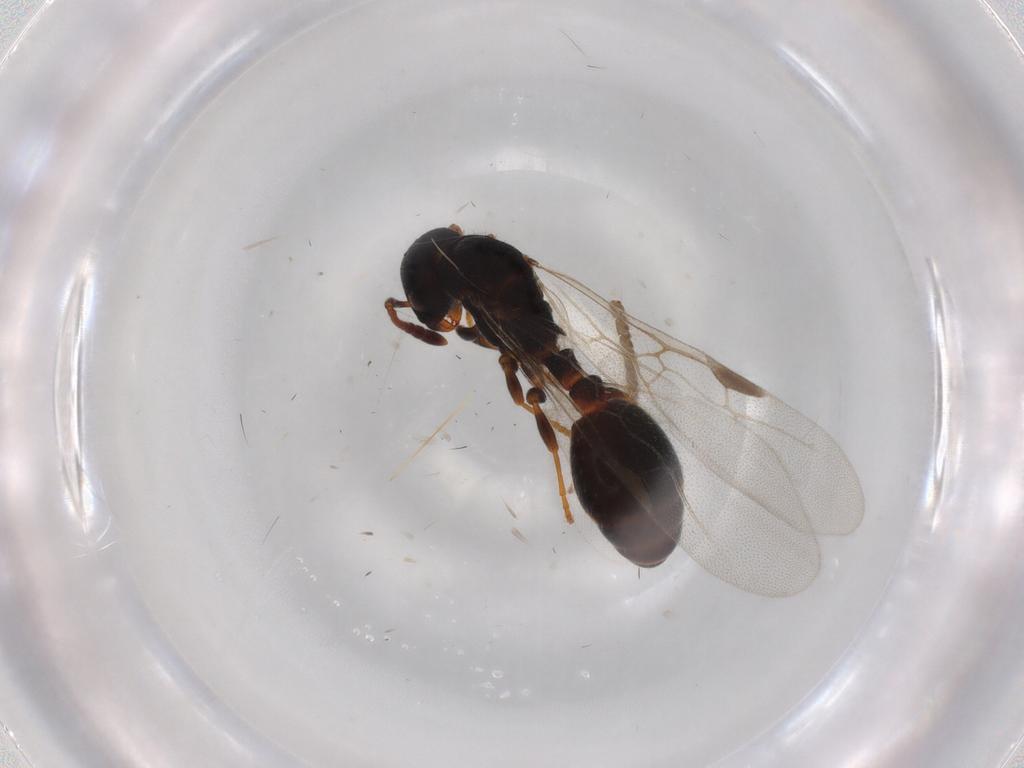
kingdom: Animalia
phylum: Arthropoda
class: Insecta
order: Hymenoptera
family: Formicidae
